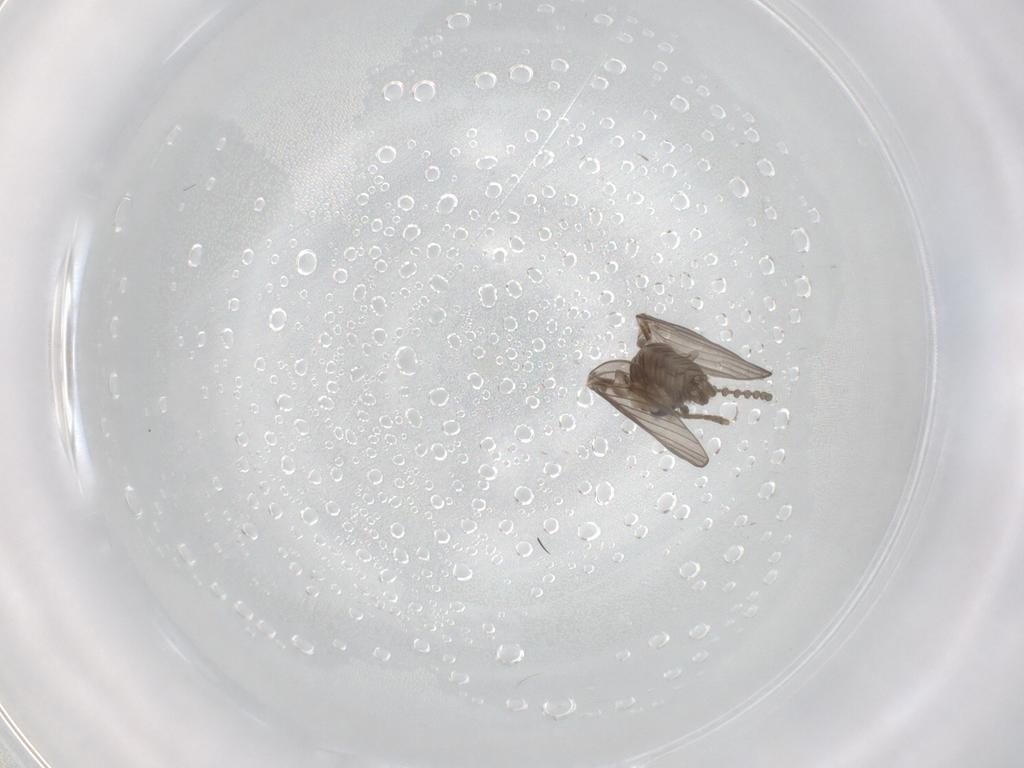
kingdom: Animalia
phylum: Arthropoda
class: Insecta
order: Diptera
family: Psychodidae
